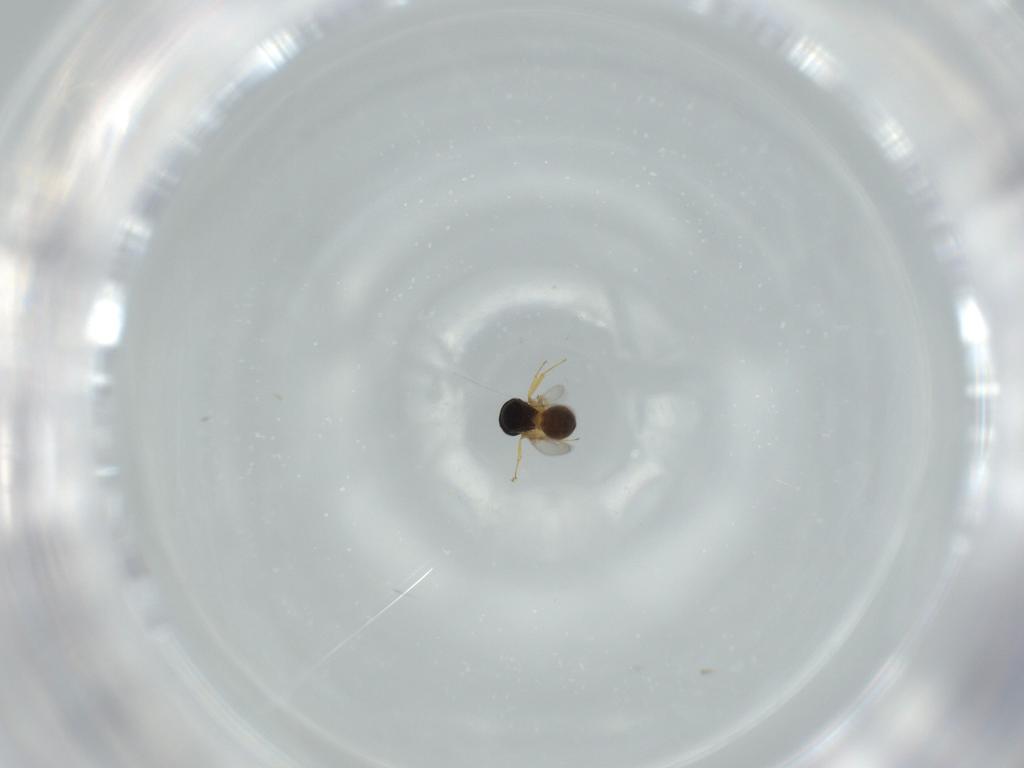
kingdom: Animalia
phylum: Arthropoda
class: Insecta
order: Hymenoptera
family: Scelionidae
